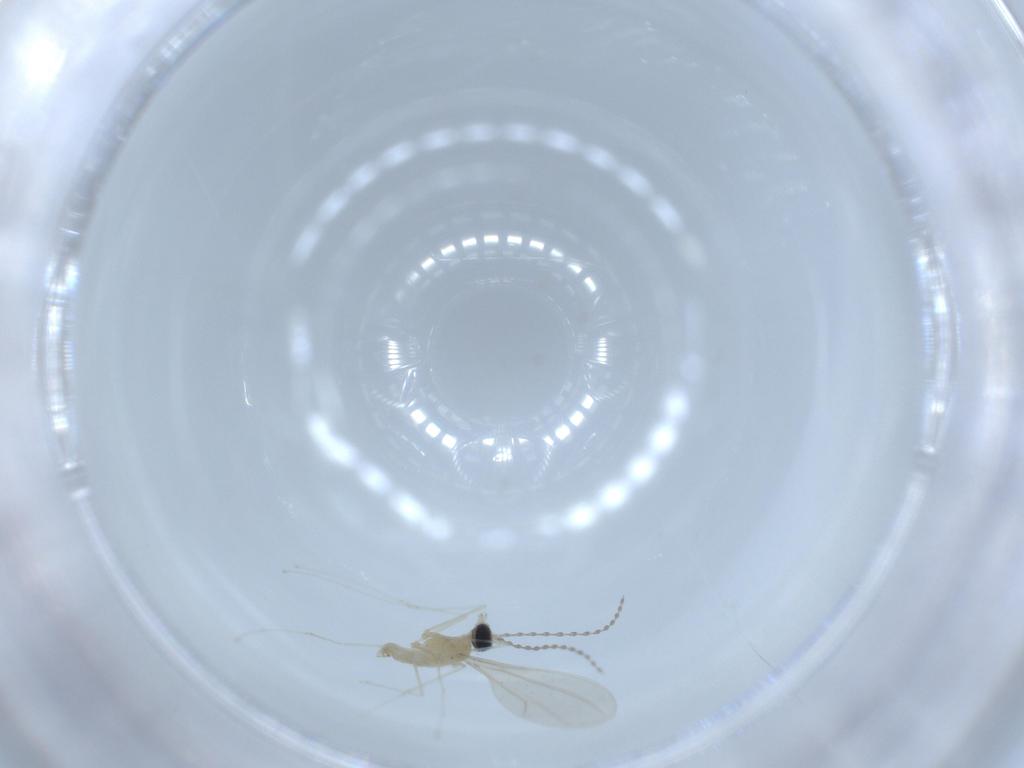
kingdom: Animalia
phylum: Arthropoda
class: Insecta
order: Diptera
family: Cecidomyiidae
